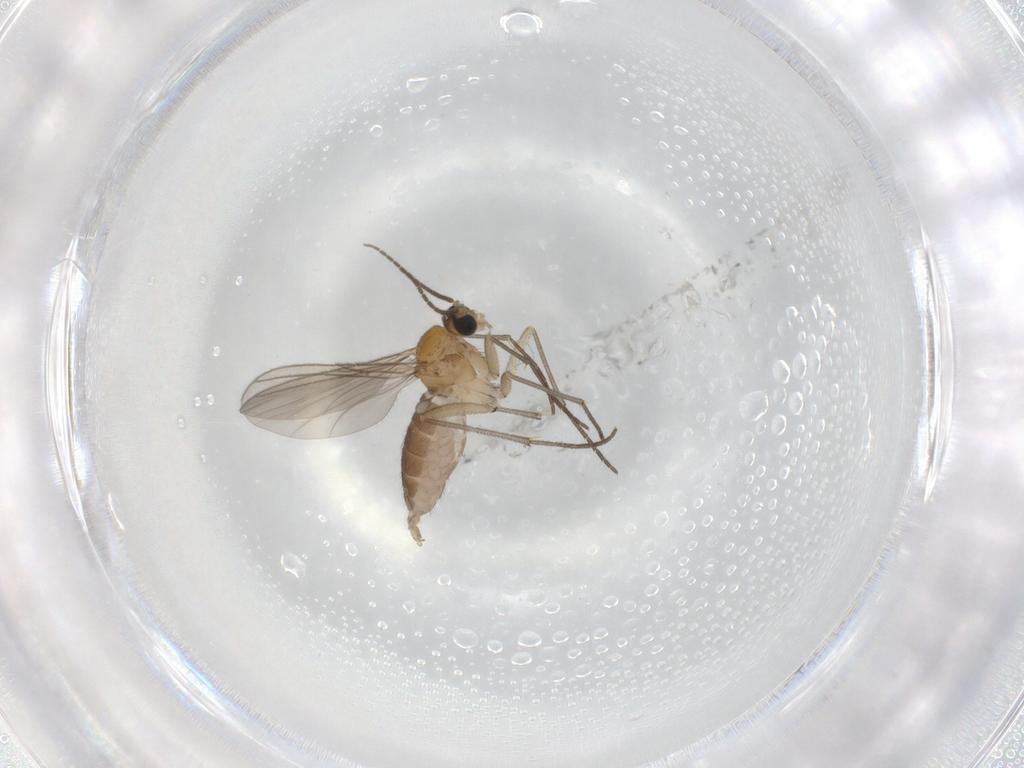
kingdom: Animalia
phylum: Arthropoda
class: Insecta
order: Diptera
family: Sciaridae
